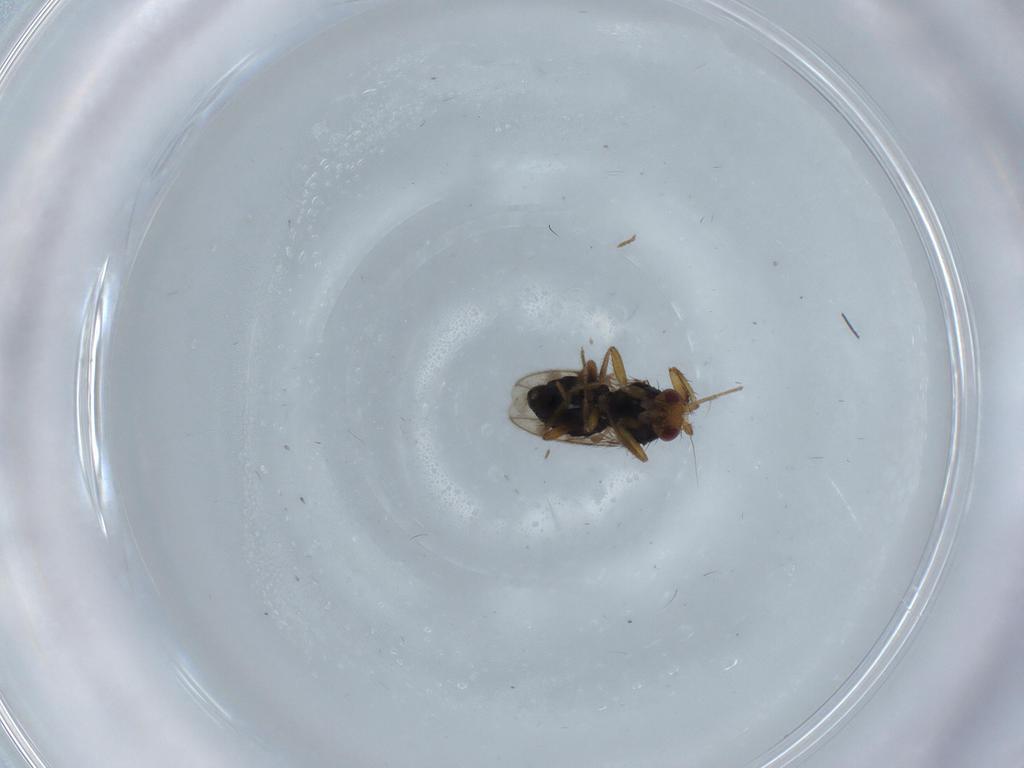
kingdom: Animalia
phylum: Arthropoda
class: Insecta
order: Diptera
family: Sphaeroceridae
